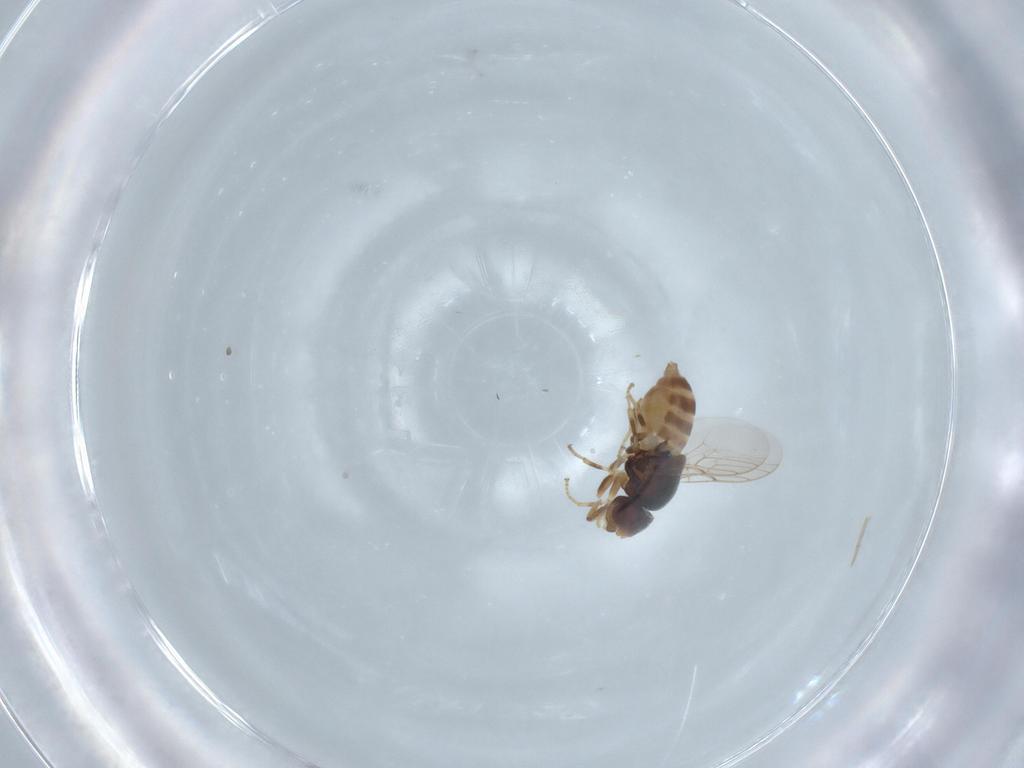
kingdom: Animalia
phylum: Arthropoda
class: Insecta
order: Diptera
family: Chloropidae
